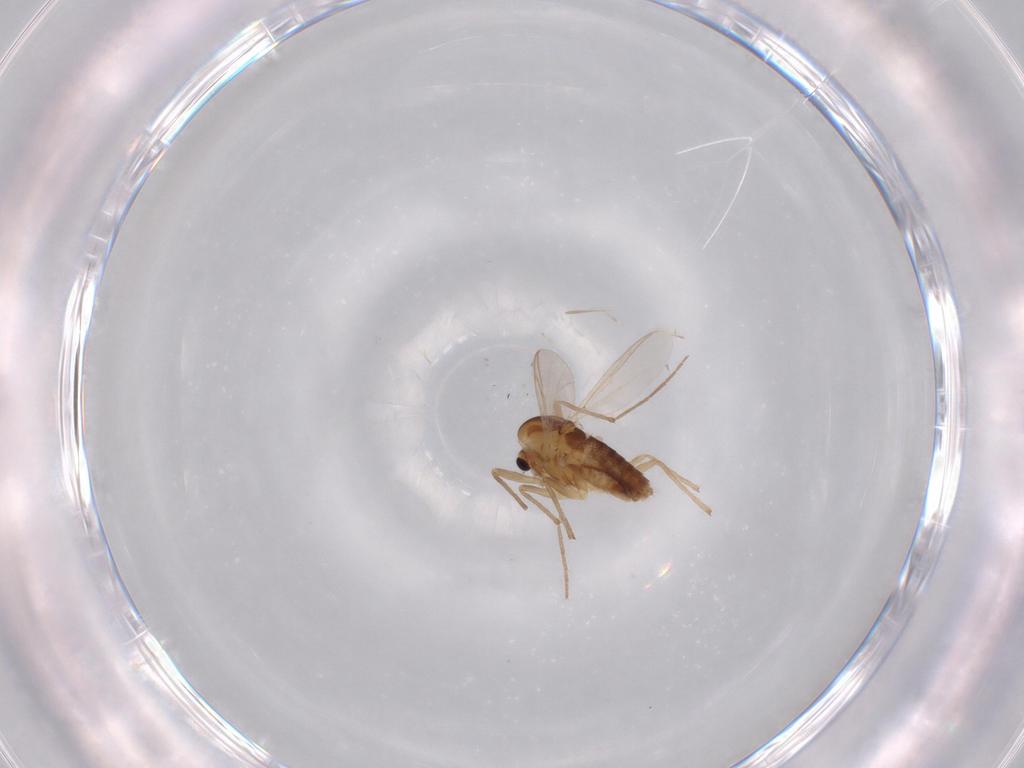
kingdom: Animalia
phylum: Arthropoda
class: Insecta
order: Diptera
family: Chironomidae
